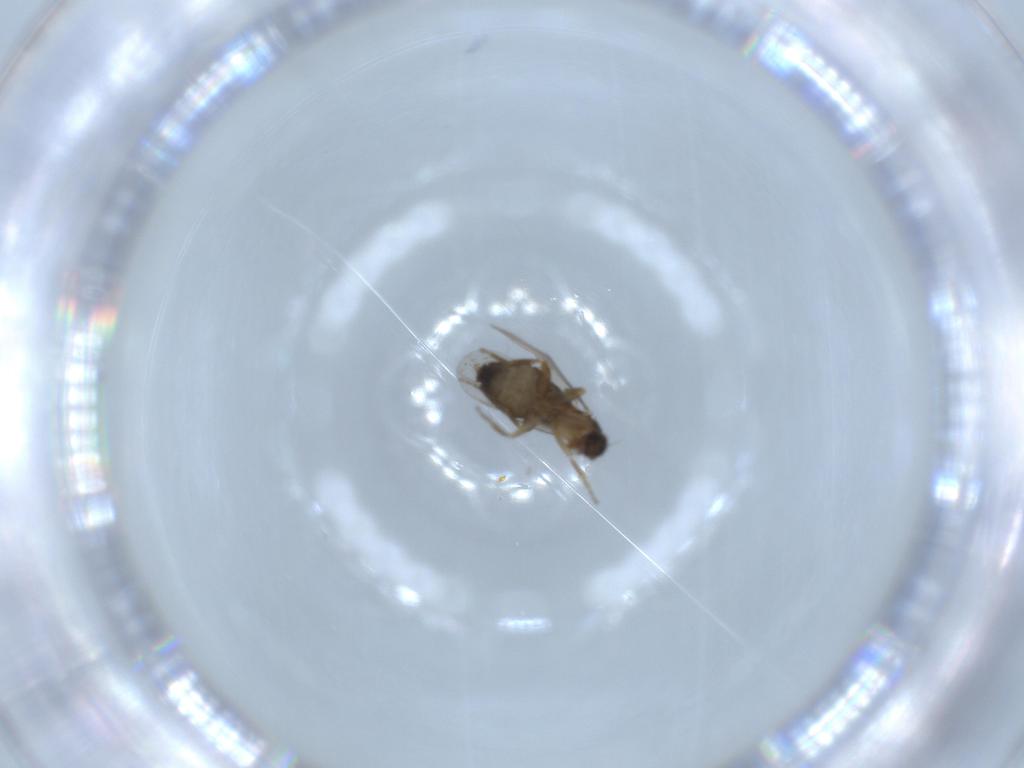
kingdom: Animalia
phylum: Arthropoda
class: Insecta
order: Diptera
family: Phoridae
